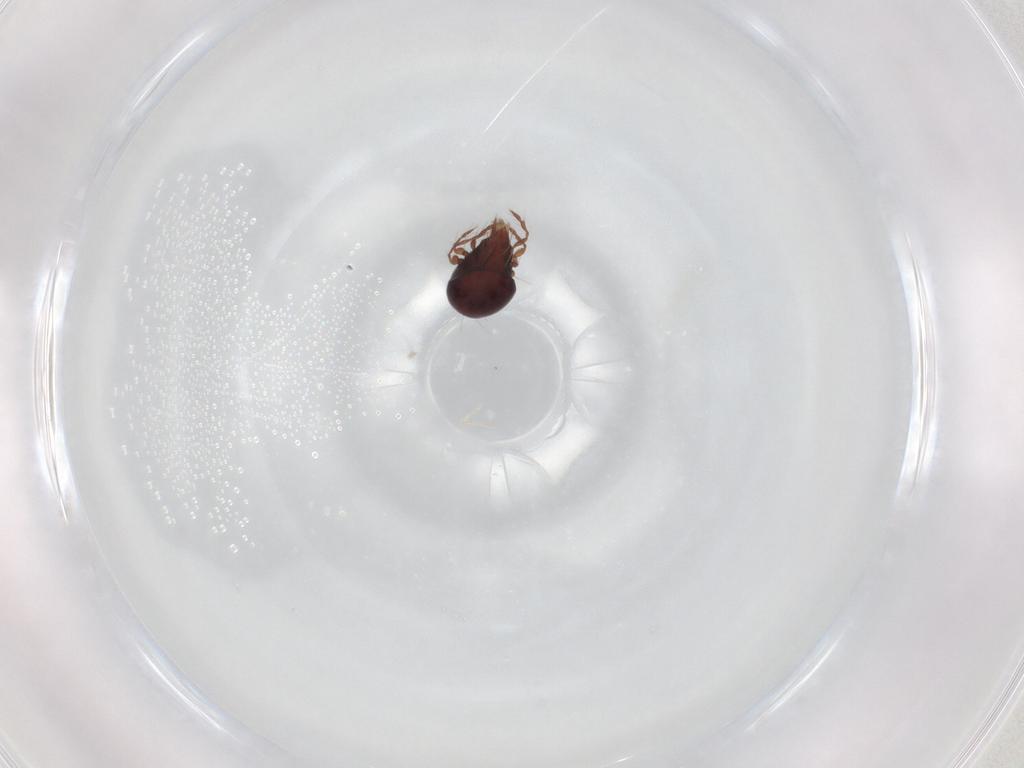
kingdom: Animalia
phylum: Arthropoda
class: Arachnida
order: Sarcoptiformes
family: Ceratoppiidae
